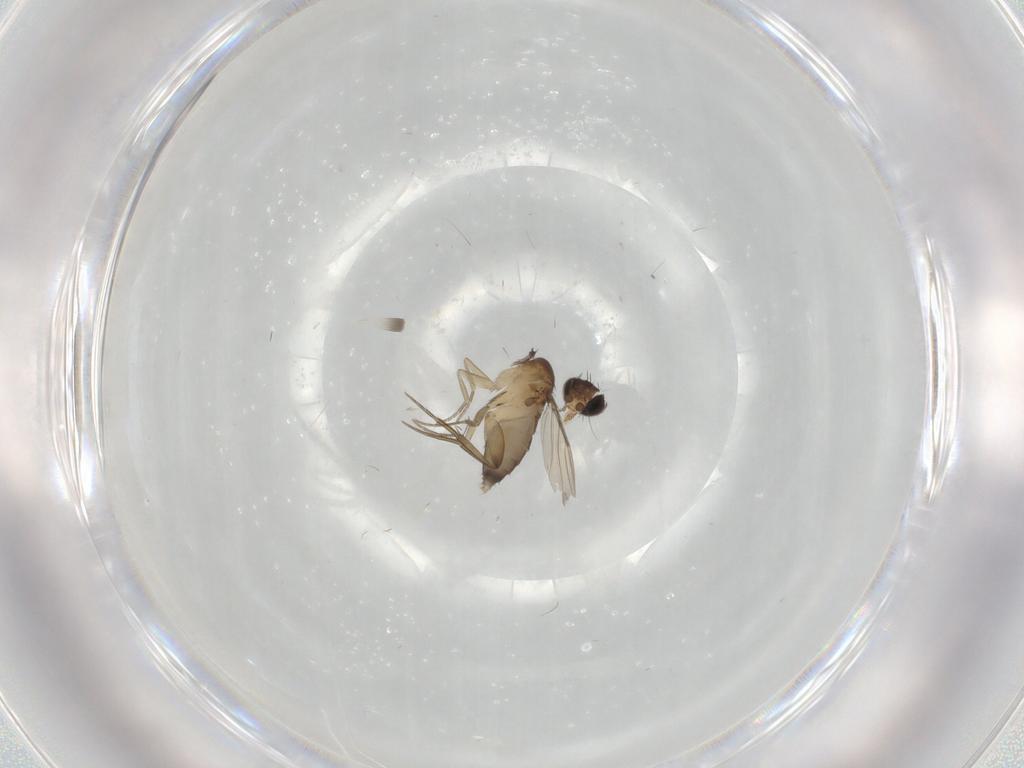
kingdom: Animalia
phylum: Arthropoda
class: Insecta
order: Diptera
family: Phoridae
